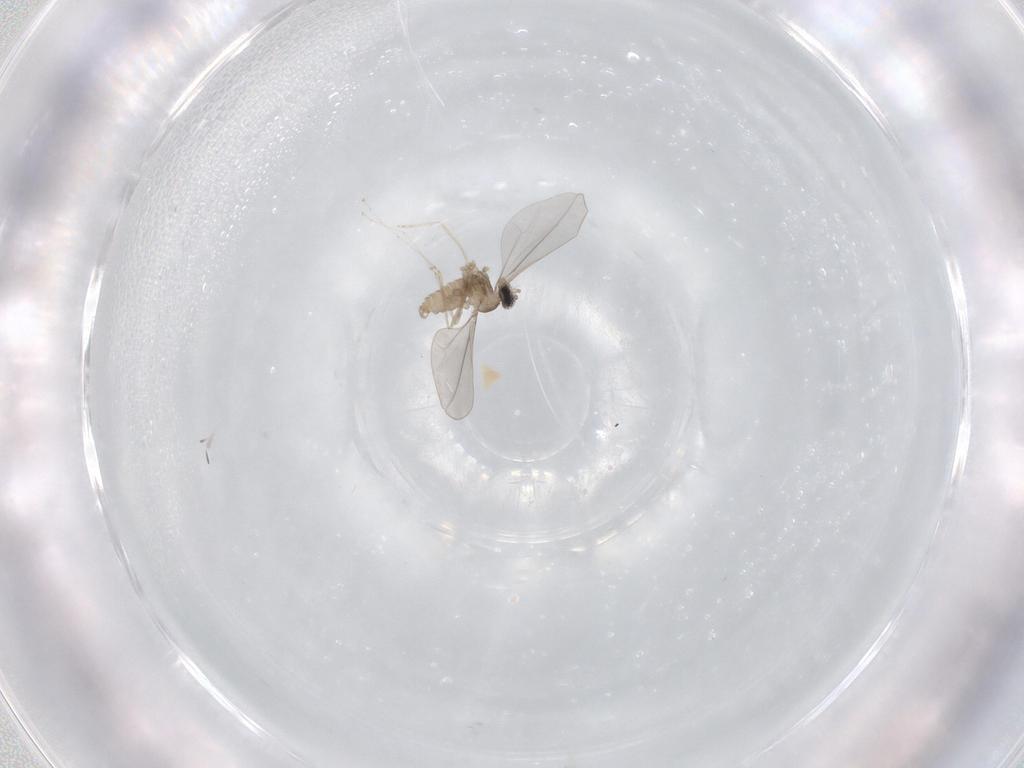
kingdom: Animalia
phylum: Arthropoda
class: Insecta
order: Diptera
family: Cecidomyiidae
